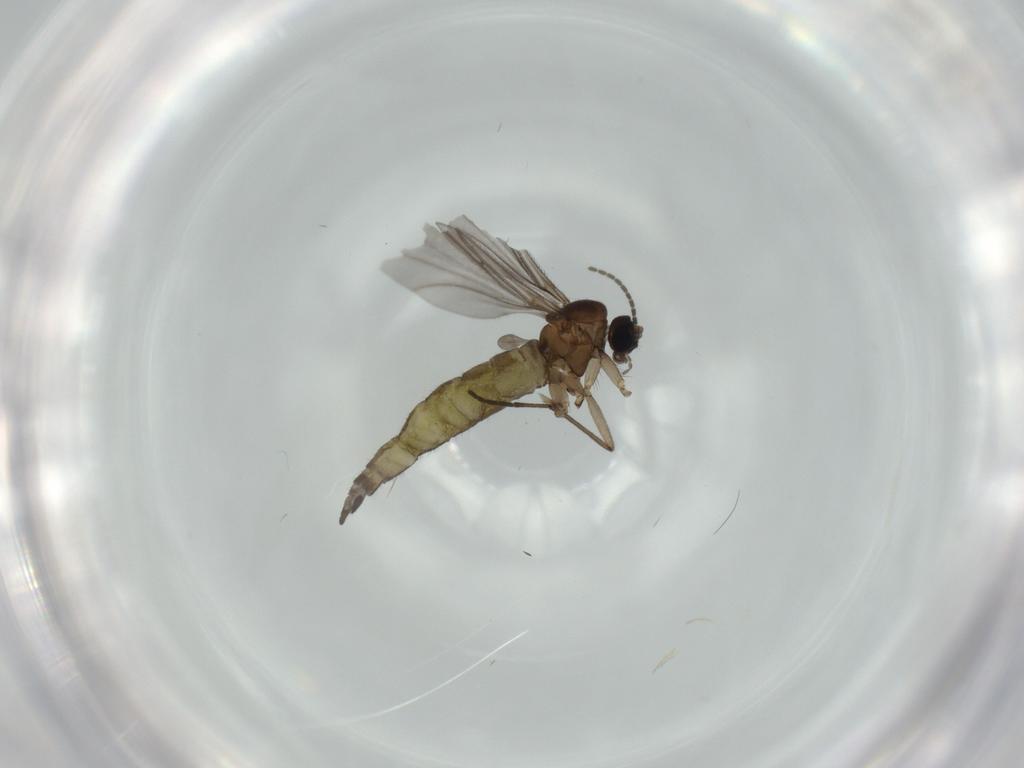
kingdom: Animalia
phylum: Arthropoda
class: Insecta
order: Diptera
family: Sciaridae
